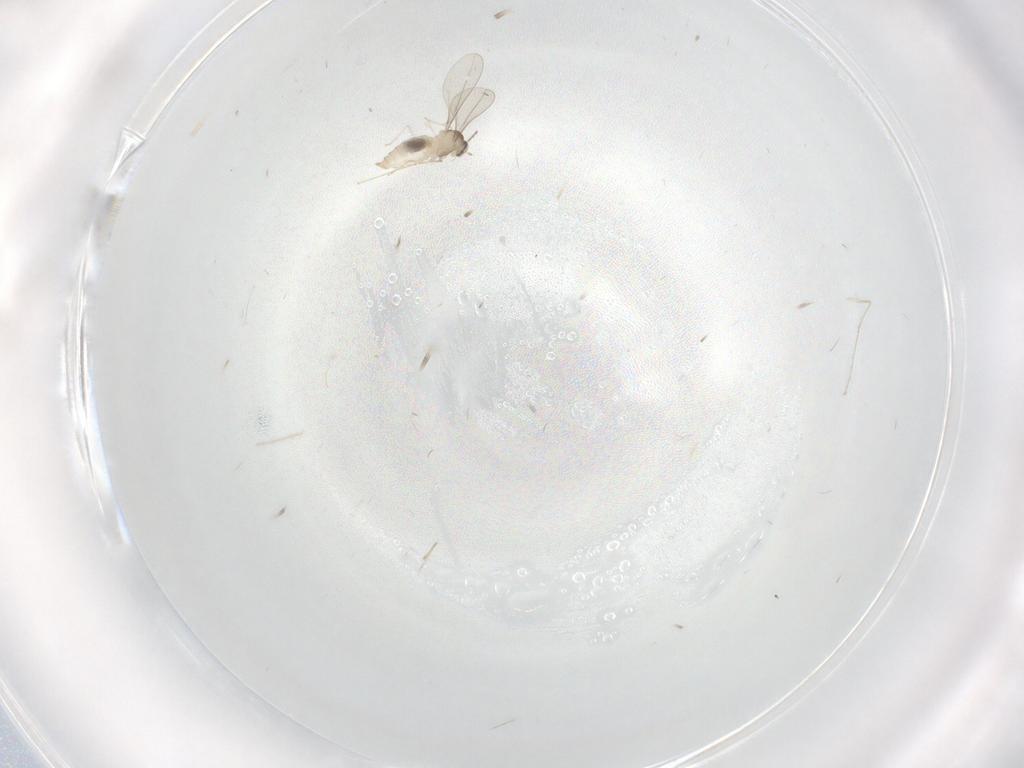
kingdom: Animalia
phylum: Arthropoda
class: Insecta
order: Diptera
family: Cecidomyiidae
